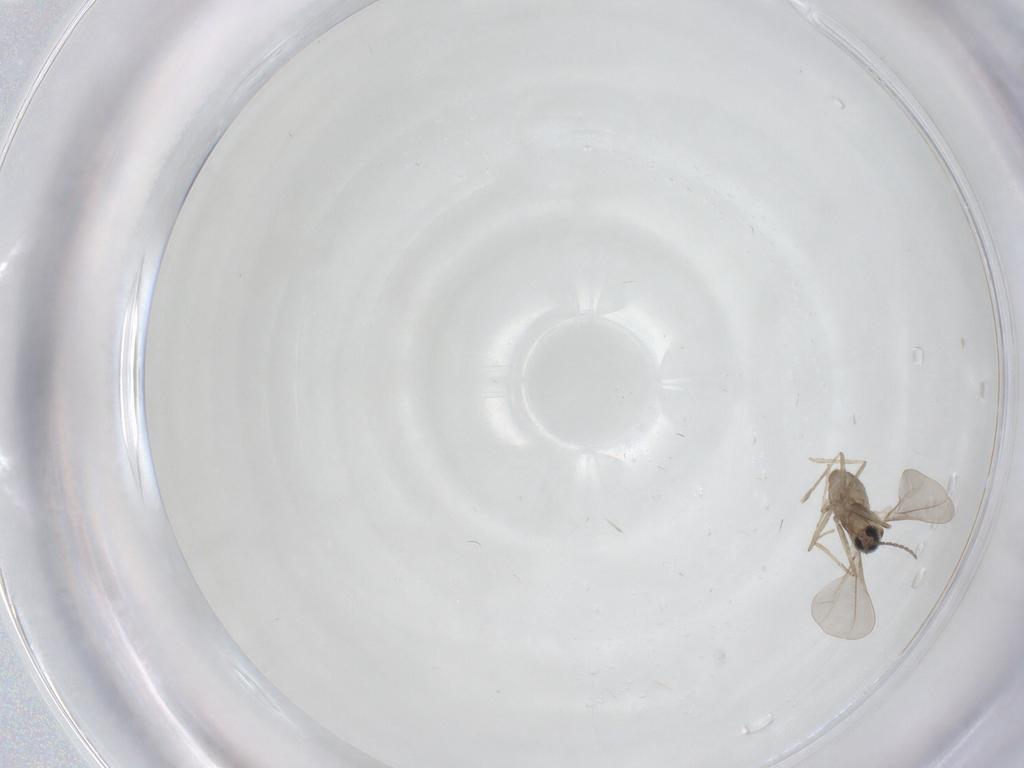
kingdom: Animalia
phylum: Arthropoda
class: Insecta
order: Diptera
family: Cecidomyiidae
